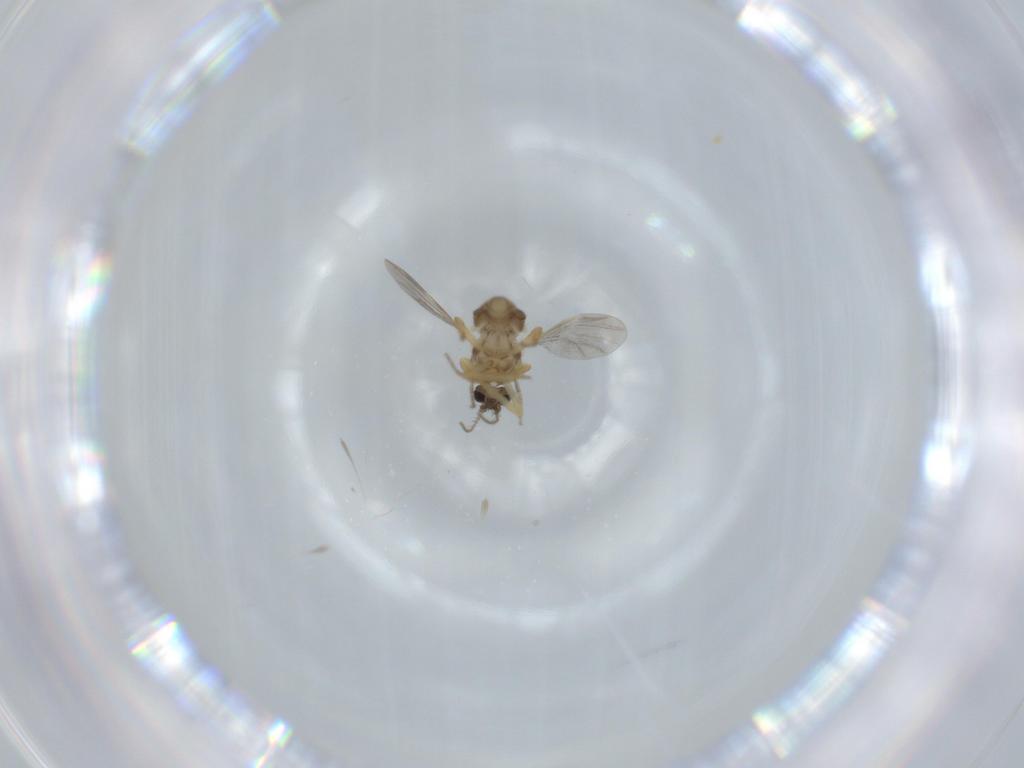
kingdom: Animalia
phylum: Arthropoda
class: Insecta
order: Diptera
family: Ceratopogonidae
